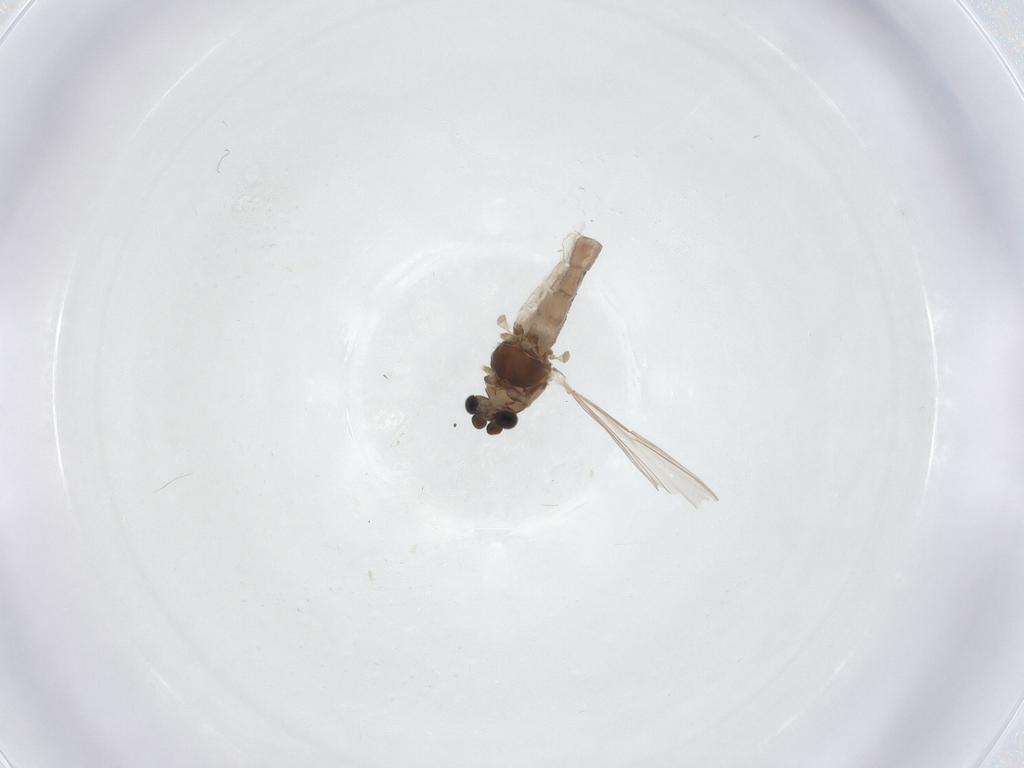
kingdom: Animalia
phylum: Arthropoda
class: Insecta
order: Diptera
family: Chironomidae
